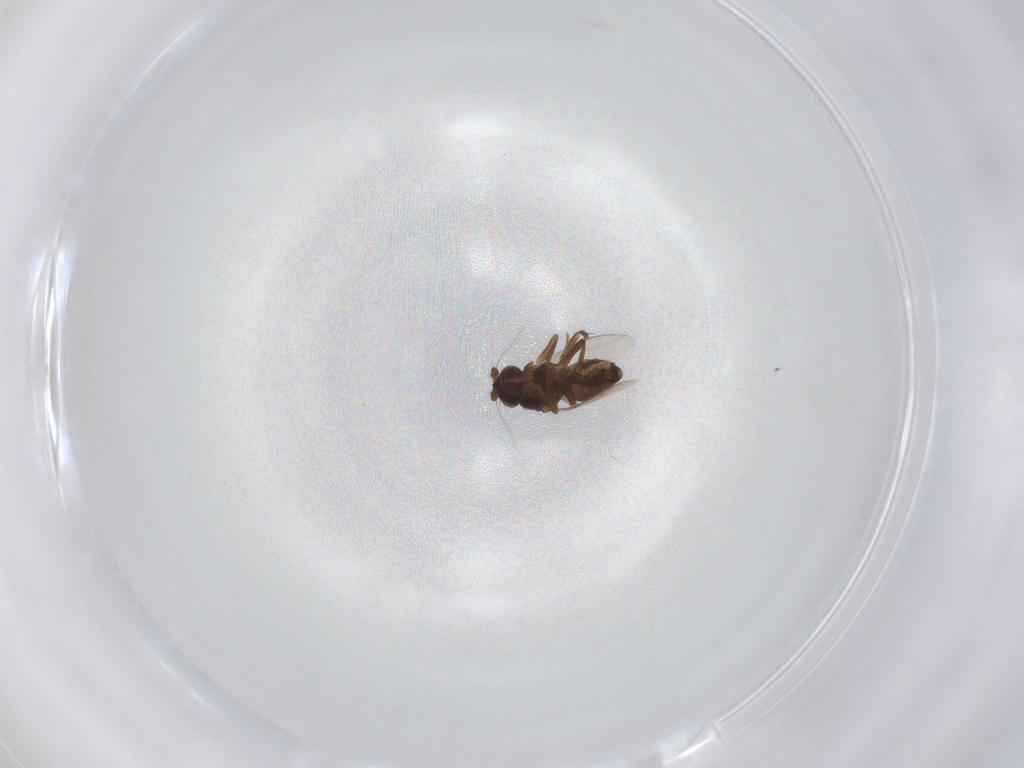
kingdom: Animalia
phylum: Arthropoda
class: Insecta
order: Diptera
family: Sphaeroceridae
